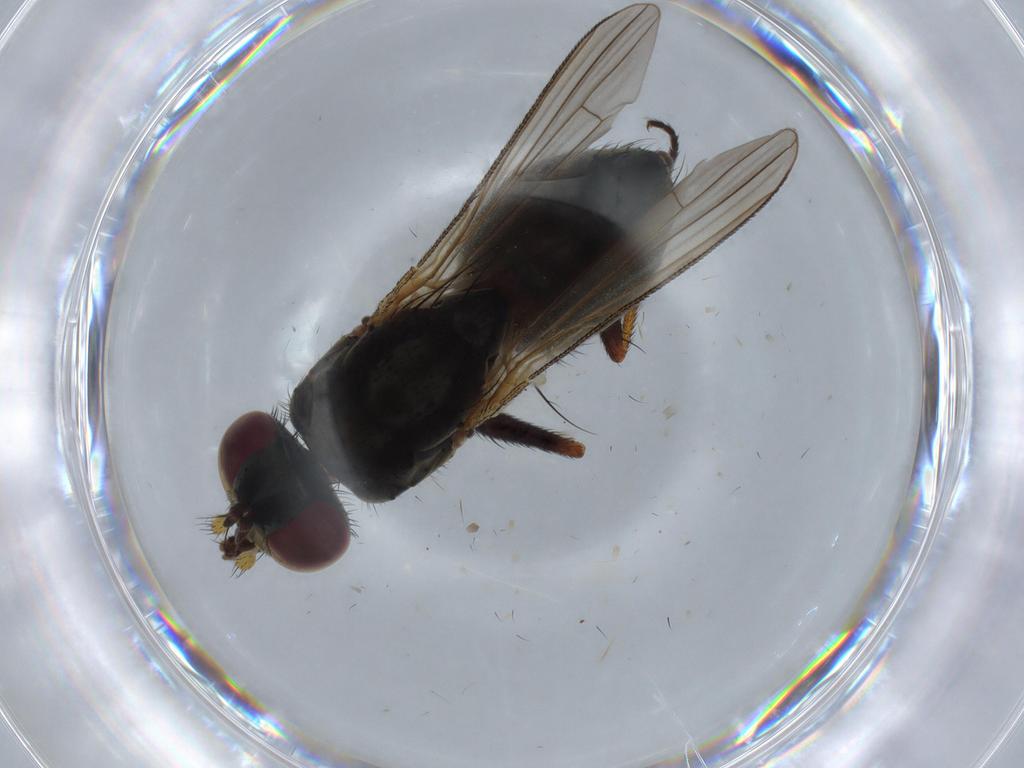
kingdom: Animalia
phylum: Arthropoda
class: Insecta
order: Diptera
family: Muscidae
